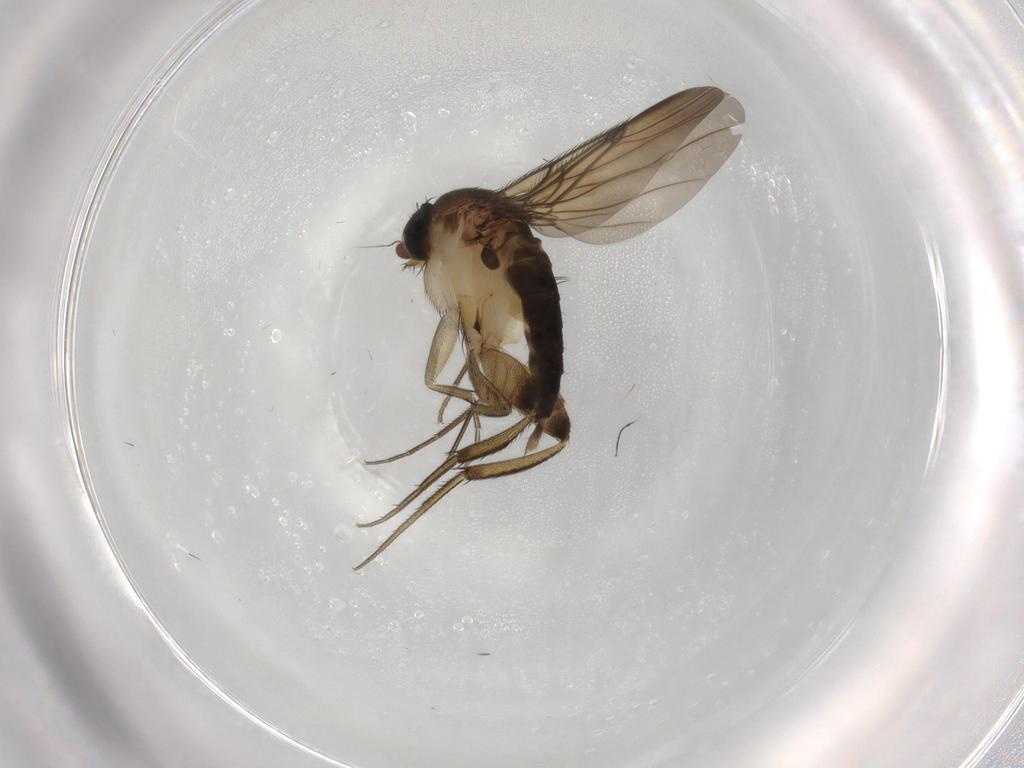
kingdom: Animalia
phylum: Arthropoda
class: Insecta
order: Diptera
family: Phoridae
